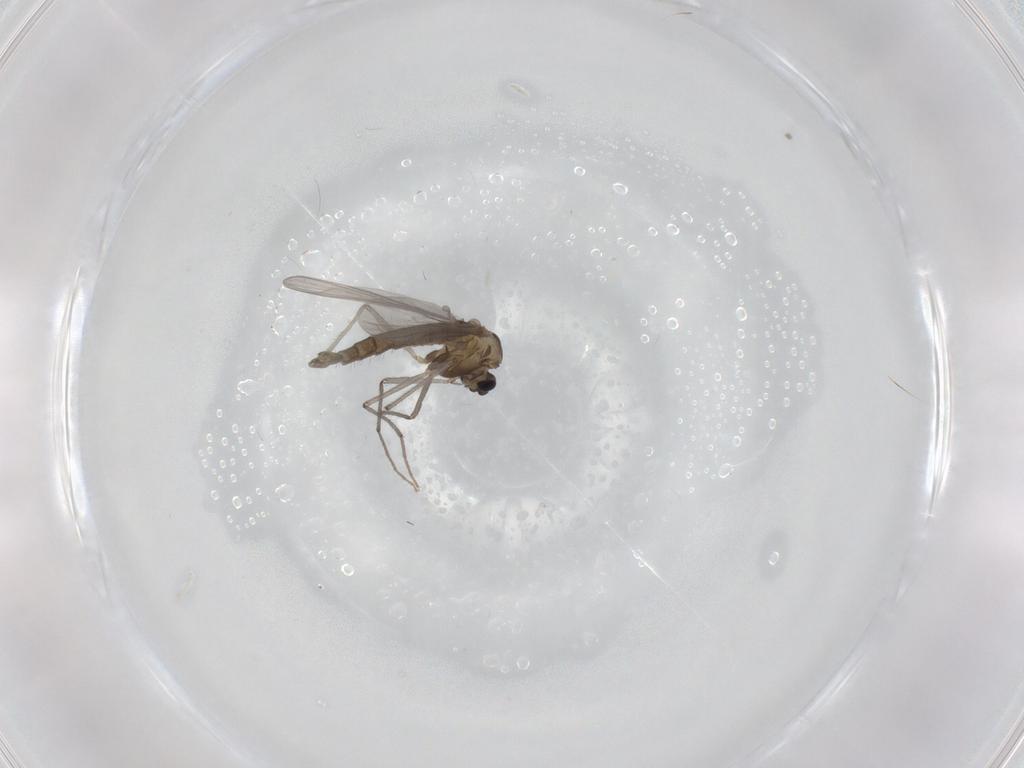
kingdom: Animalia
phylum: Arthropoda
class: Insecta
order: Diptera
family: Chironomidae
